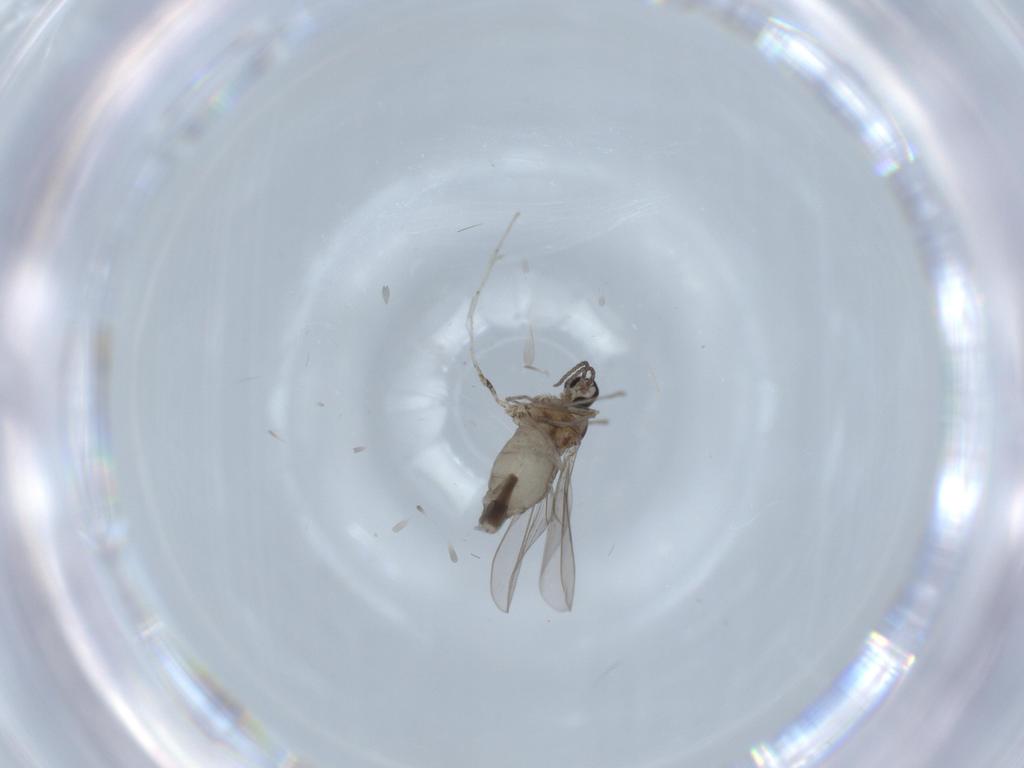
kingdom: Animalia
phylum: Arthropoda
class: Insecta
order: Diptera
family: Cecidomyiidae
